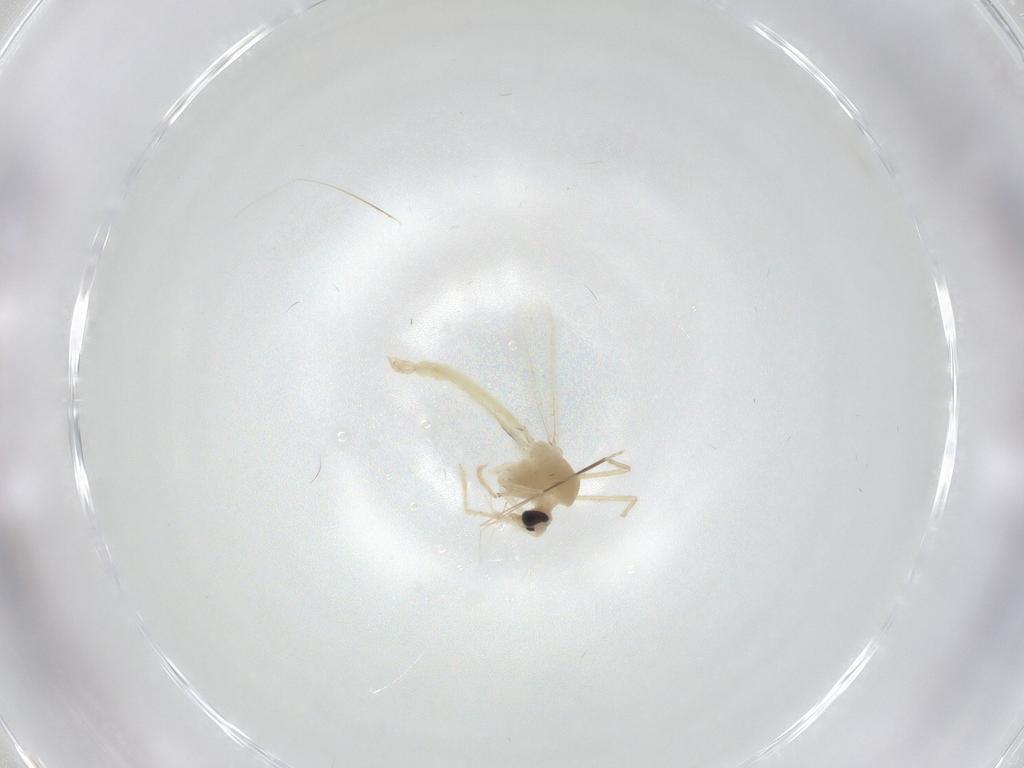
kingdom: Animalia
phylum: Arthropoda
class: Insecta
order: Diptera
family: Chironomidae
